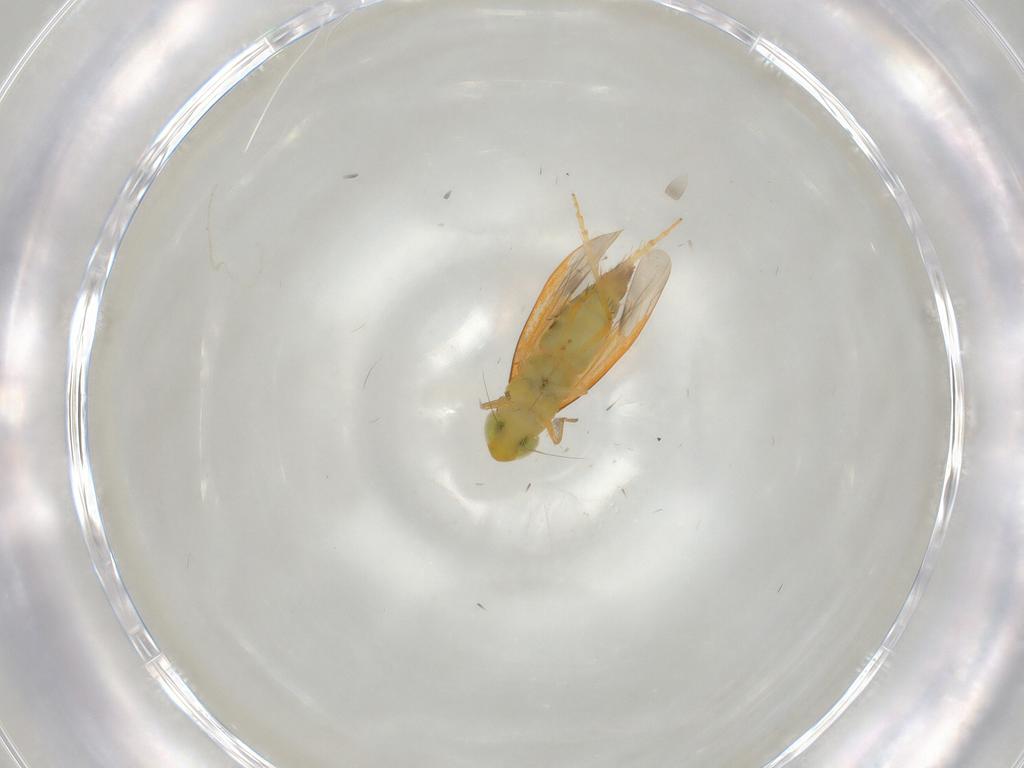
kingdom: Animalia
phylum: Arthropoda
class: Insecta
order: Hemiptera
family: Cicadellidae
